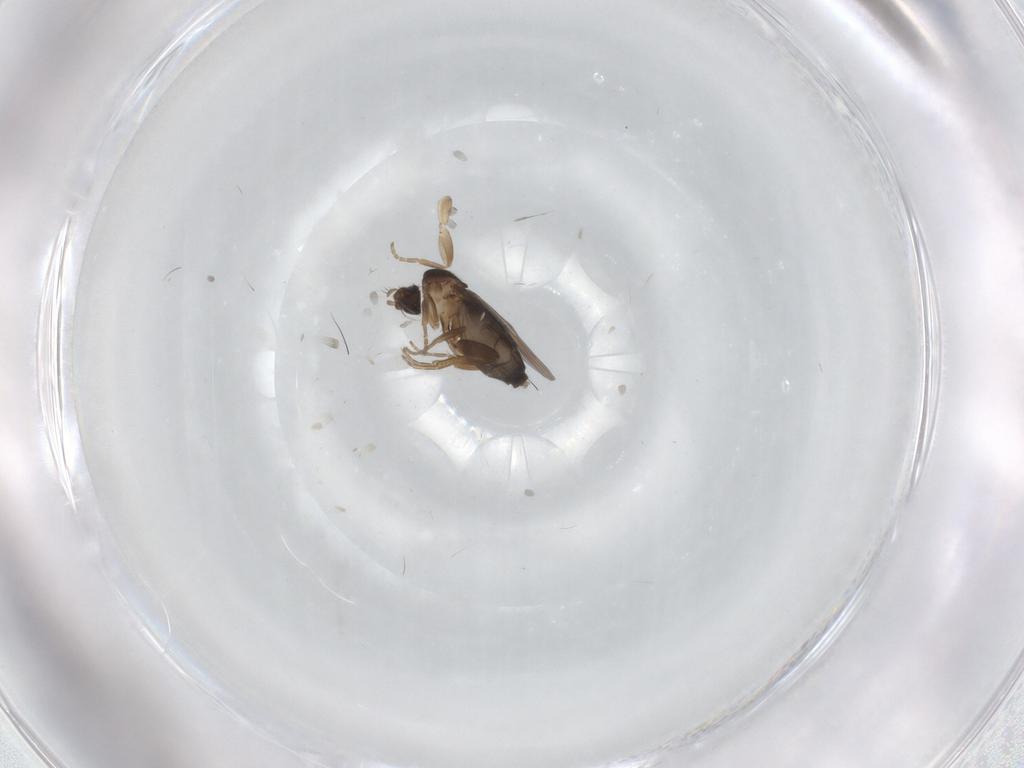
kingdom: Animalia
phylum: Arthropoda
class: Insecta
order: Diptera
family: Phoridae
